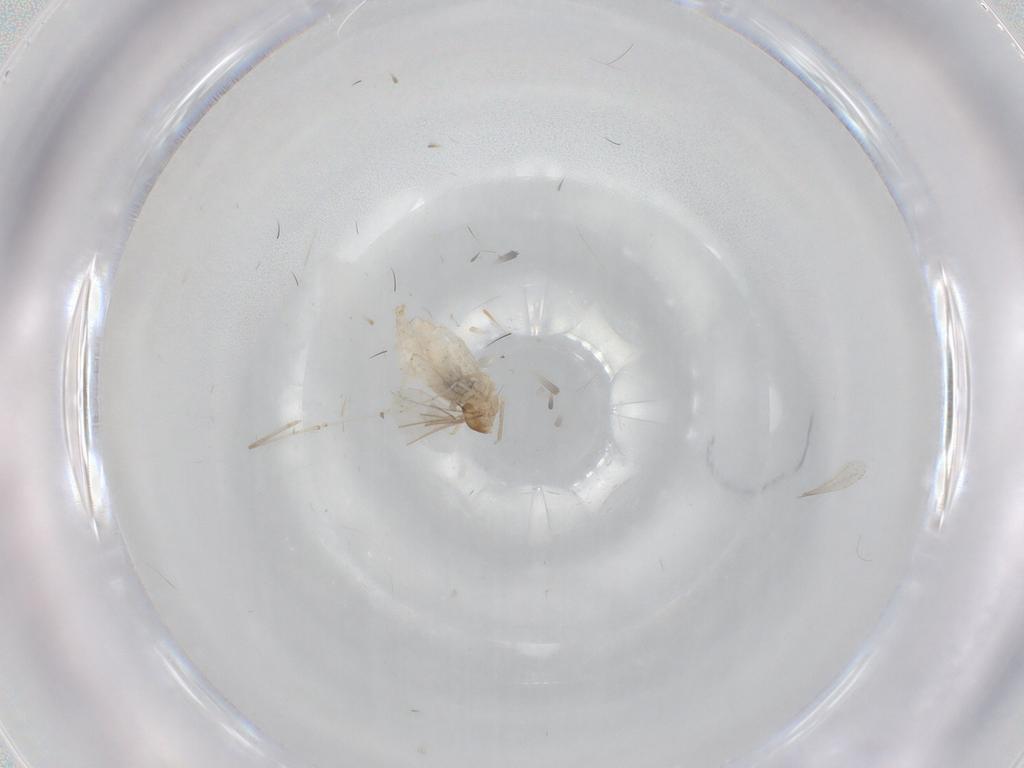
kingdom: Animalia
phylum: Arthropoda
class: Insecta
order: Diptera
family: Cecidomyiidae
